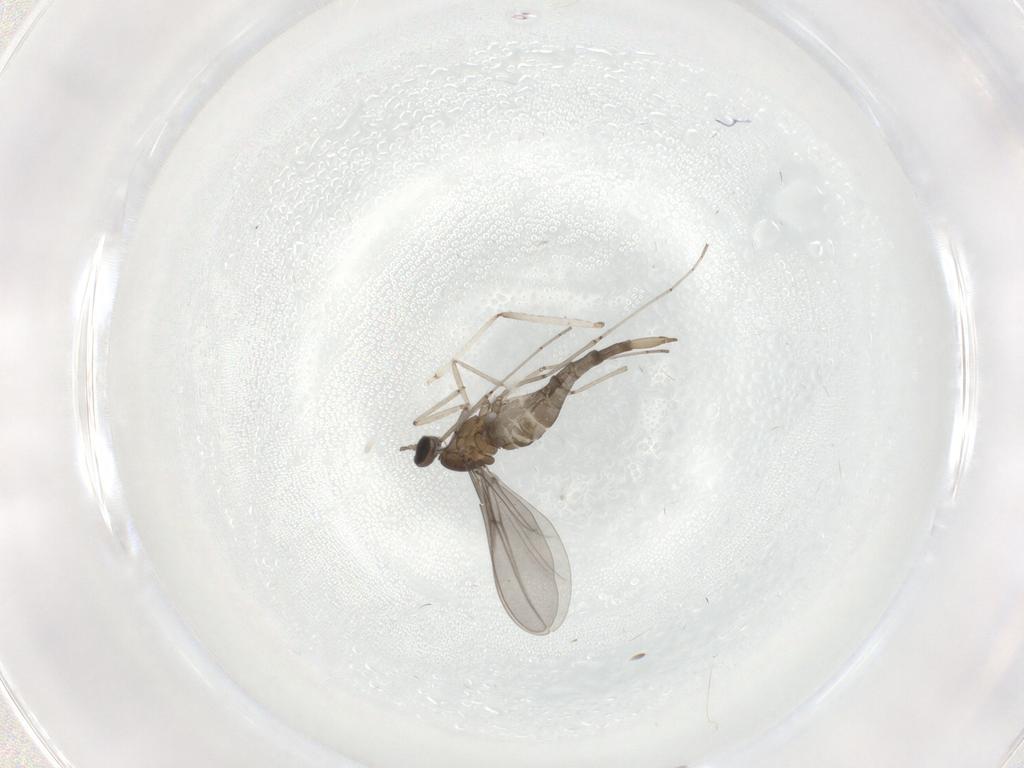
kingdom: Animalia
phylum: Arthropoda
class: Insecta
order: Diptera
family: Cecidomyiidae
